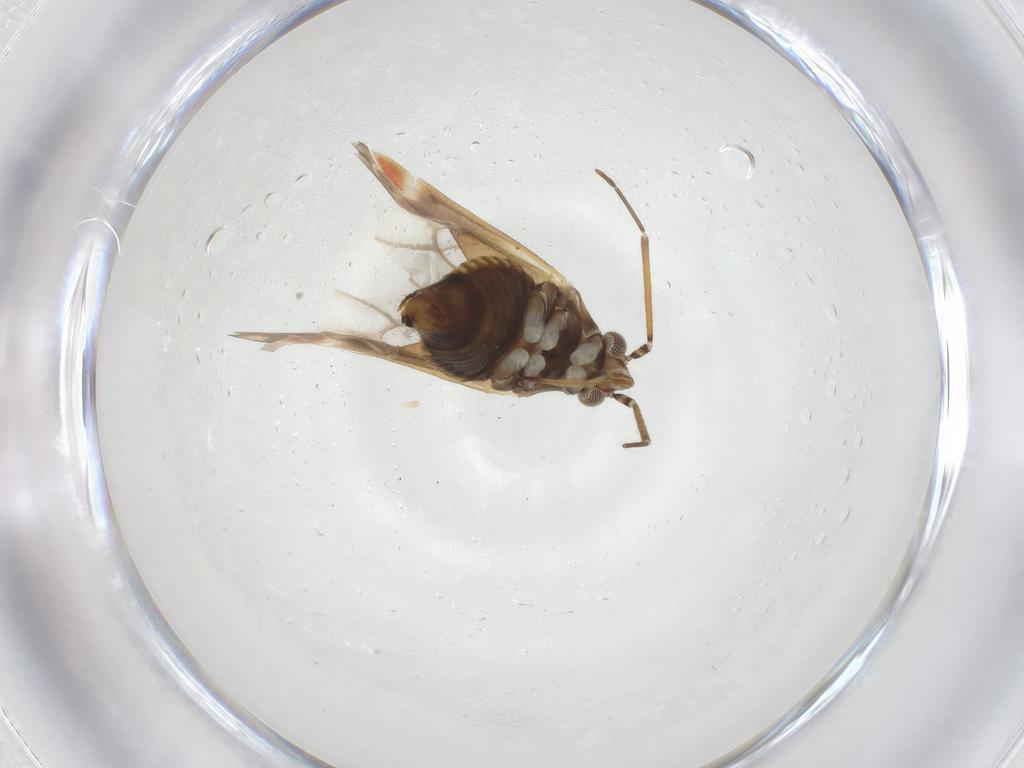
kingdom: Animalia
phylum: Arthropoda
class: Insecta
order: Hemiptera
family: Miridae
